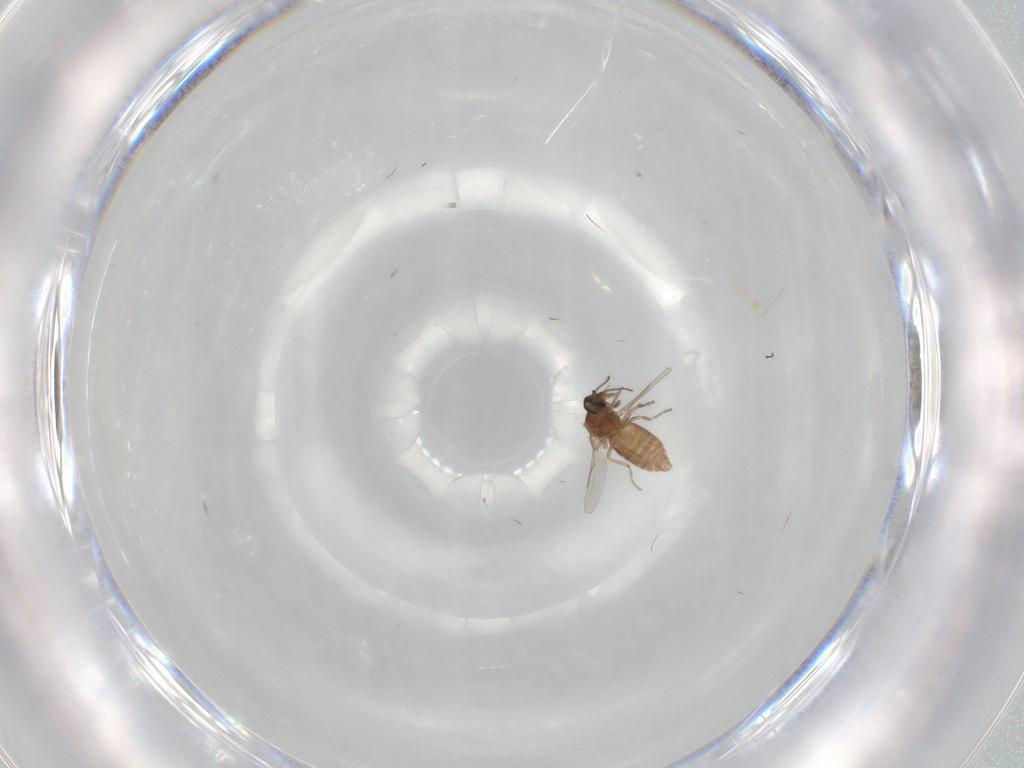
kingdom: Animalia
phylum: Arthropoda
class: Insecta
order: Diptera
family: Ceratopogonidae
